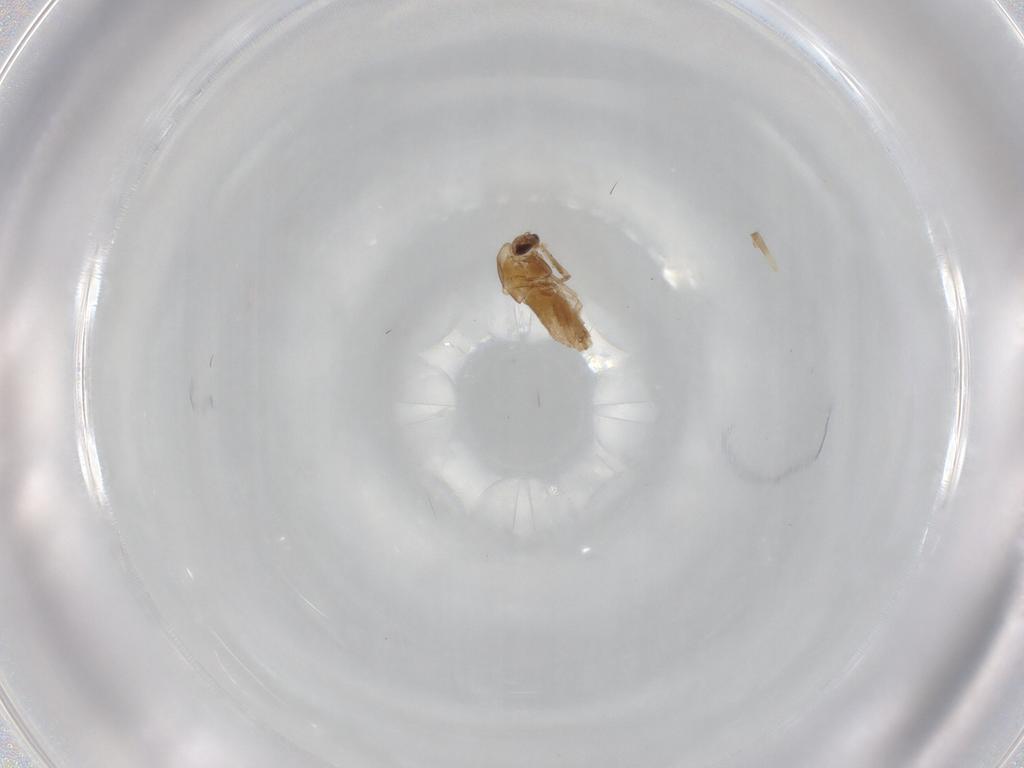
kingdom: Animalia
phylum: Arthropoda
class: Insecta
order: Diptera
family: Chironomidae
